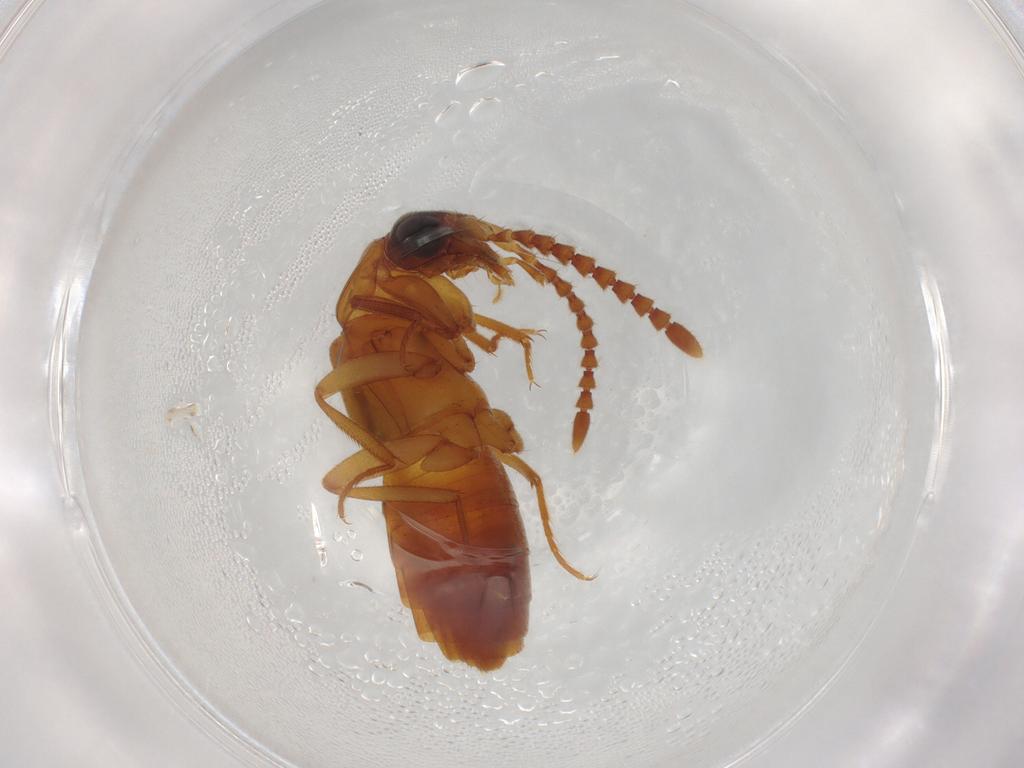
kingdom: Animalia
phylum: Arthropoda
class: Insecta
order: Coleoptera
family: Staphylinidae
